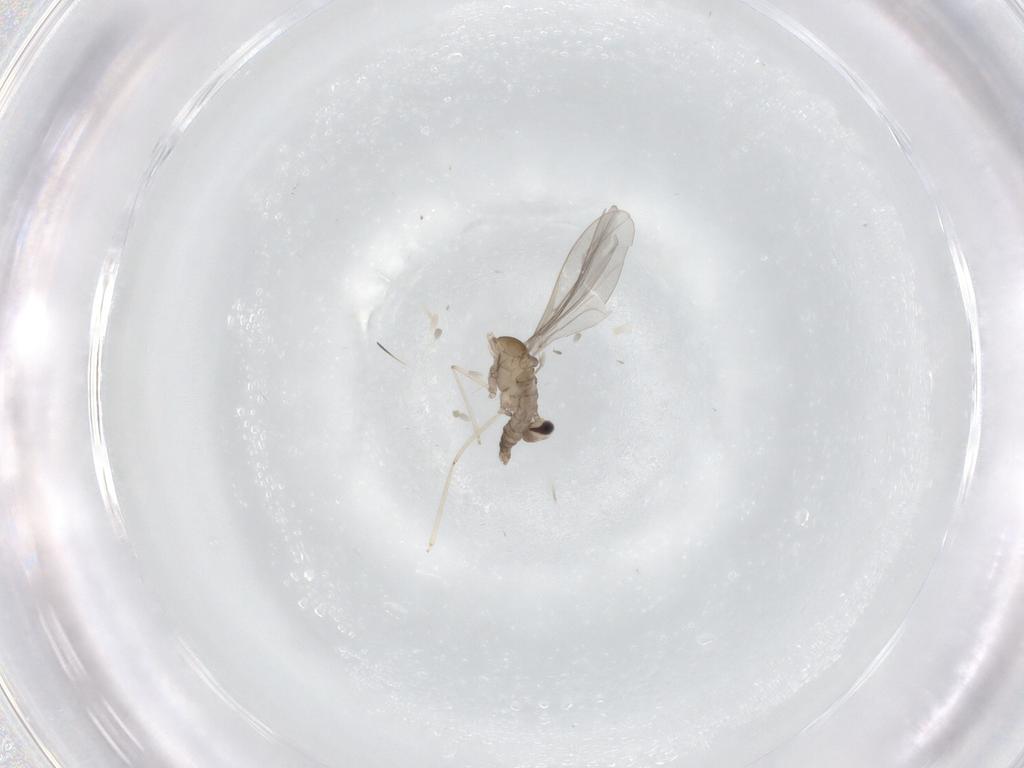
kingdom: Animalia
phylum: Arthropoda
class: Insecta
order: Diptera
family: Cecidomyiidae
